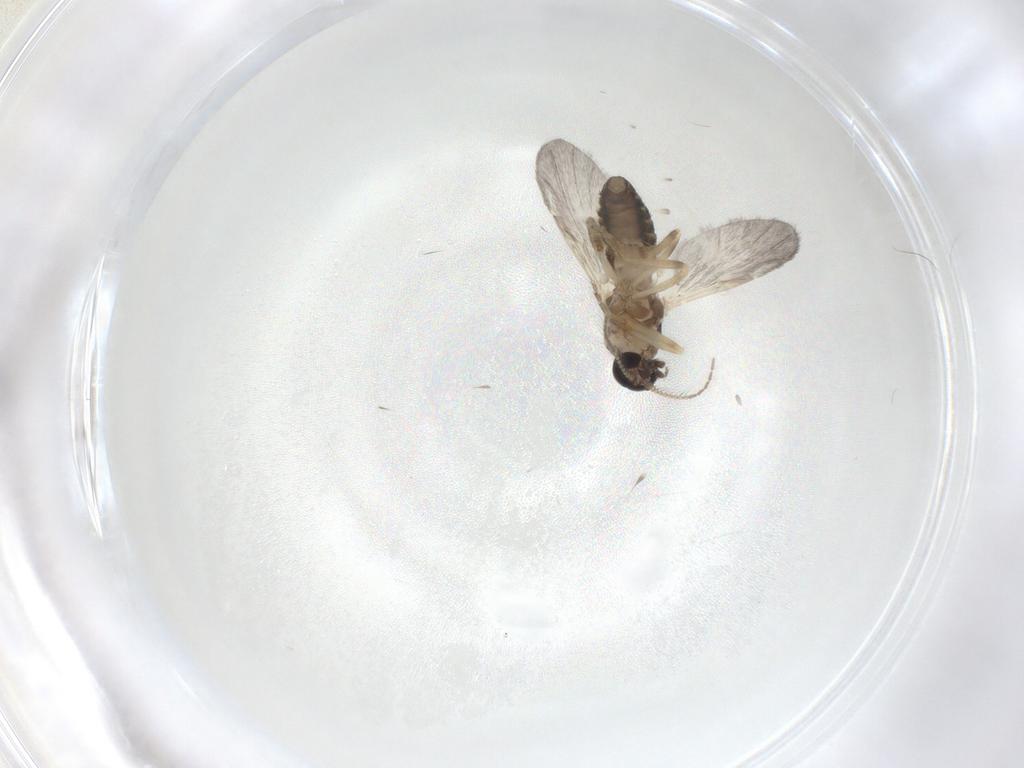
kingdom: Animalia
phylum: Arthropoda
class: Insecta
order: Diptera
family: Ceratopogonidae
